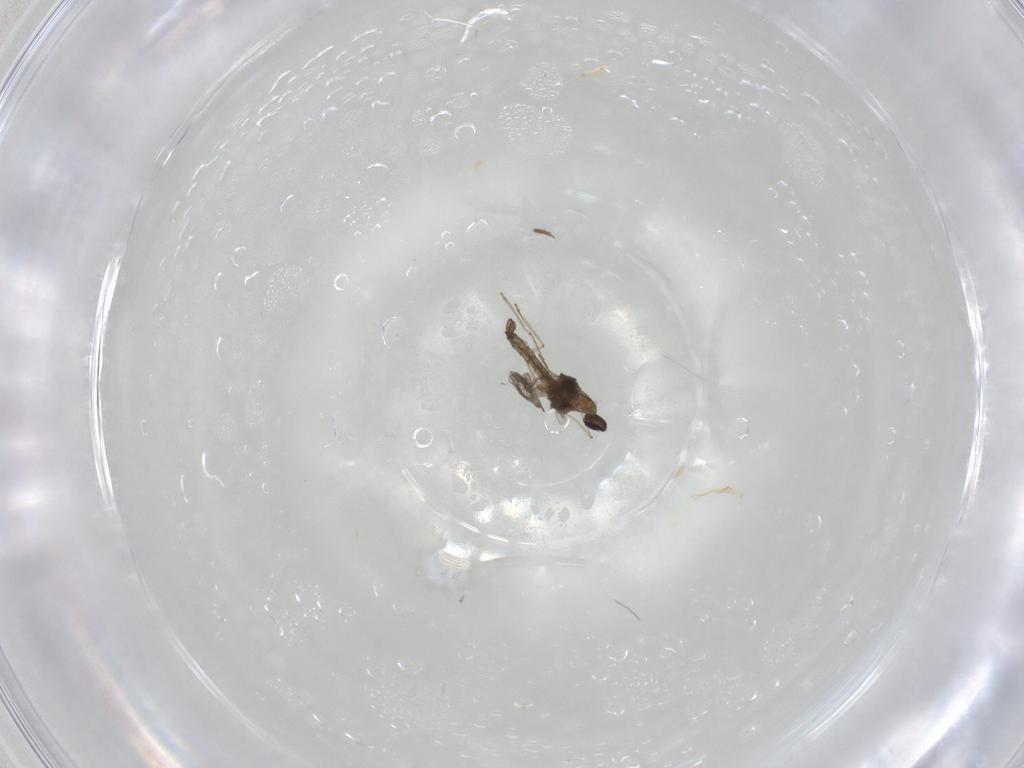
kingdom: Animalia
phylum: Arthropoda
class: Insecta
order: Diptera
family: Cecidomyiidae
